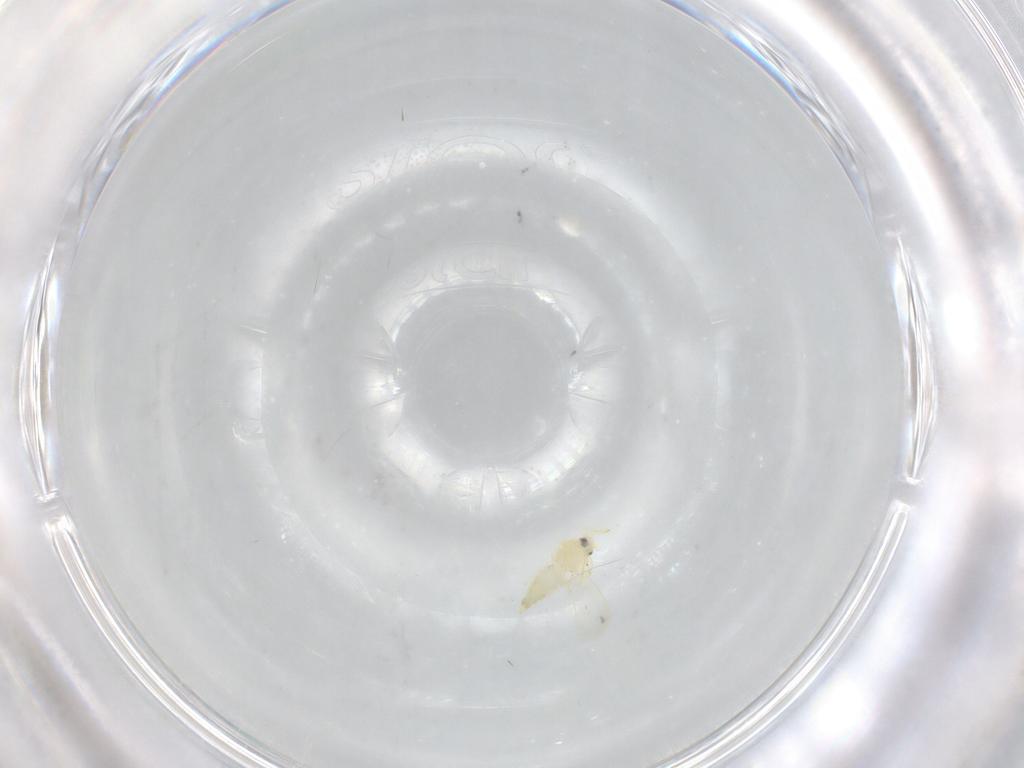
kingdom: Animalia
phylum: Arthropoda
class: Insecta
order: Hemiptera
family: Aleyrodidae
